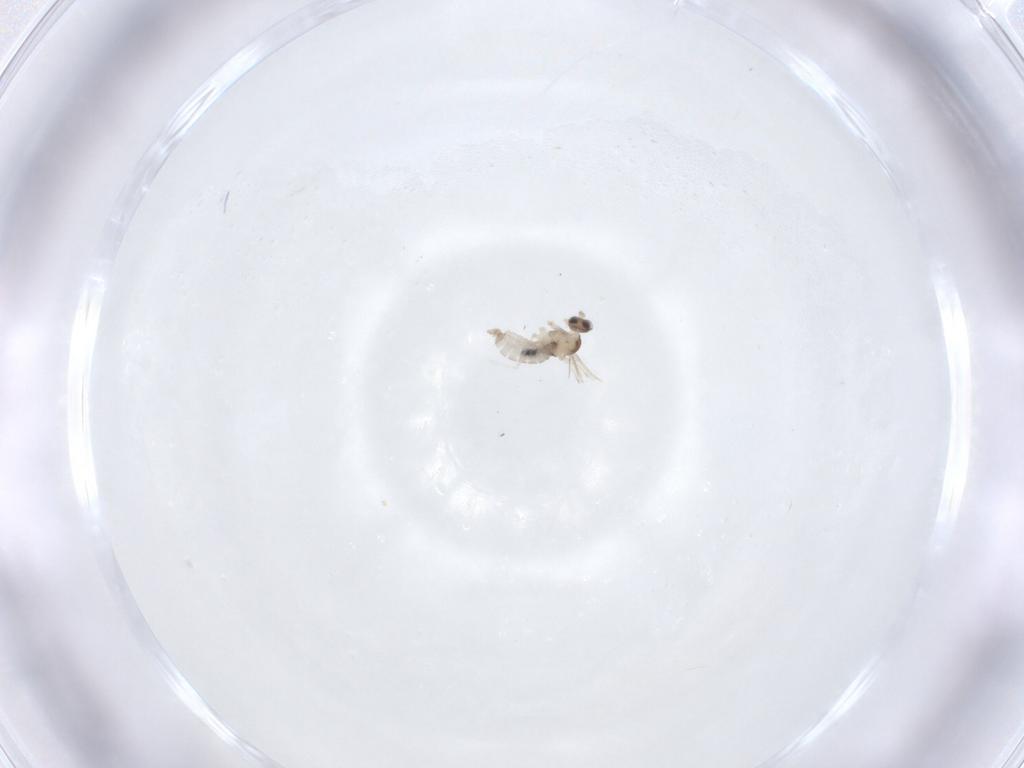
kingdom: Animalia
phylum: Arthropoda
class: Insecta
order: Diptera
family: Cecidomyiidae
